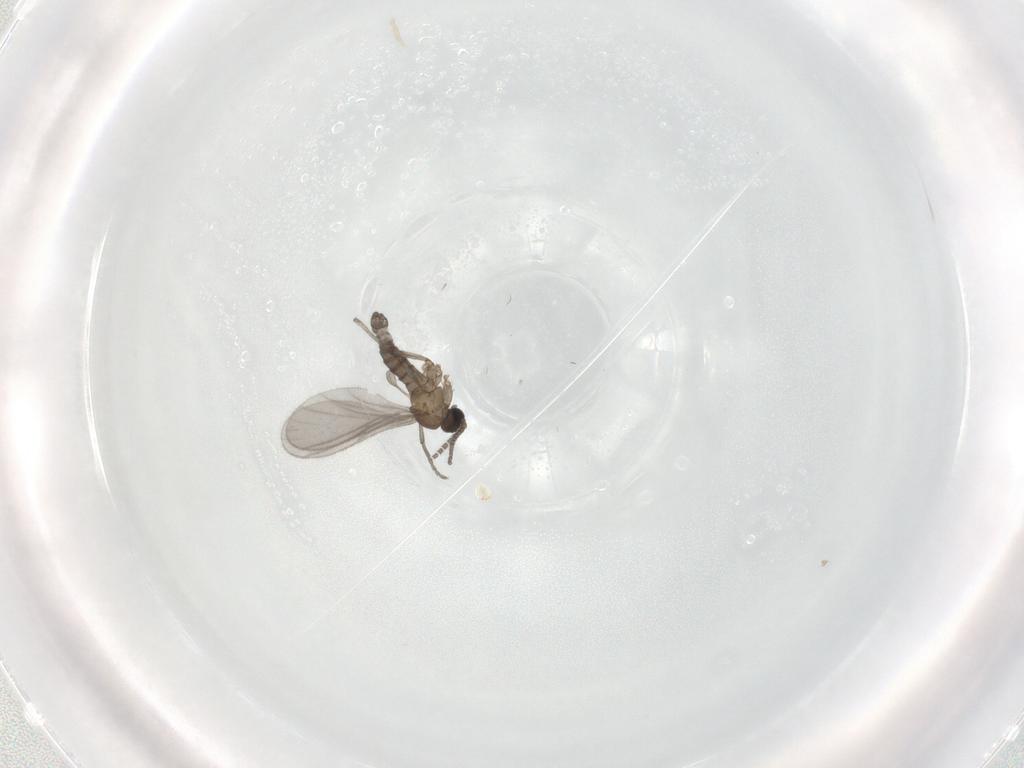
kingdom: Animalia
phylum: Arthropoda
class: Insecta
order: Diptera
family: Sciaridae
